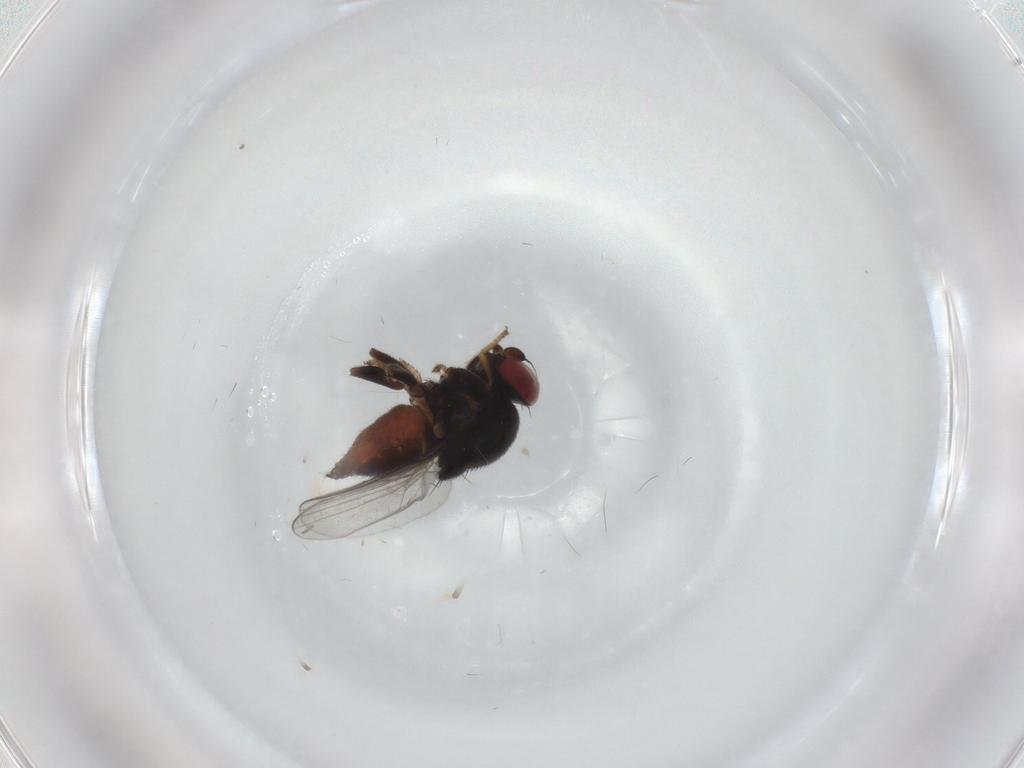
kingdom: Animalia
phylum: Arthropoda
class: Insecta
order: Diptera
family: Chloropidae
